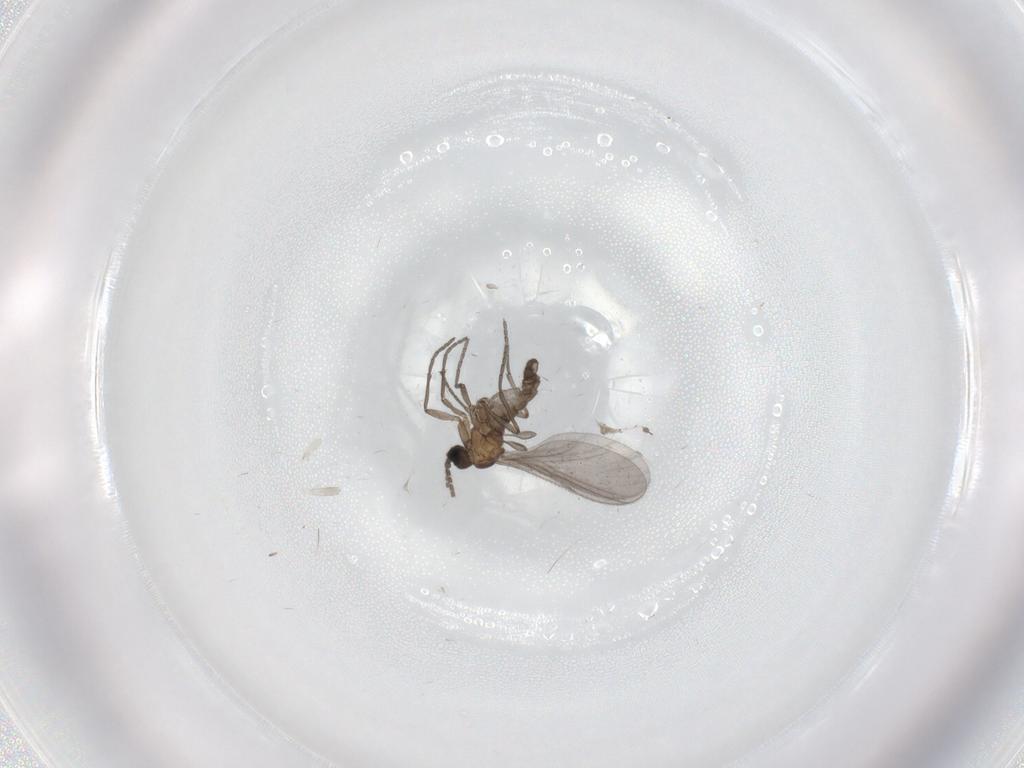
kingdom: Animalia
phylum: Arthropoda
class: Insecta
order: Diptera
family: Sciaridae
